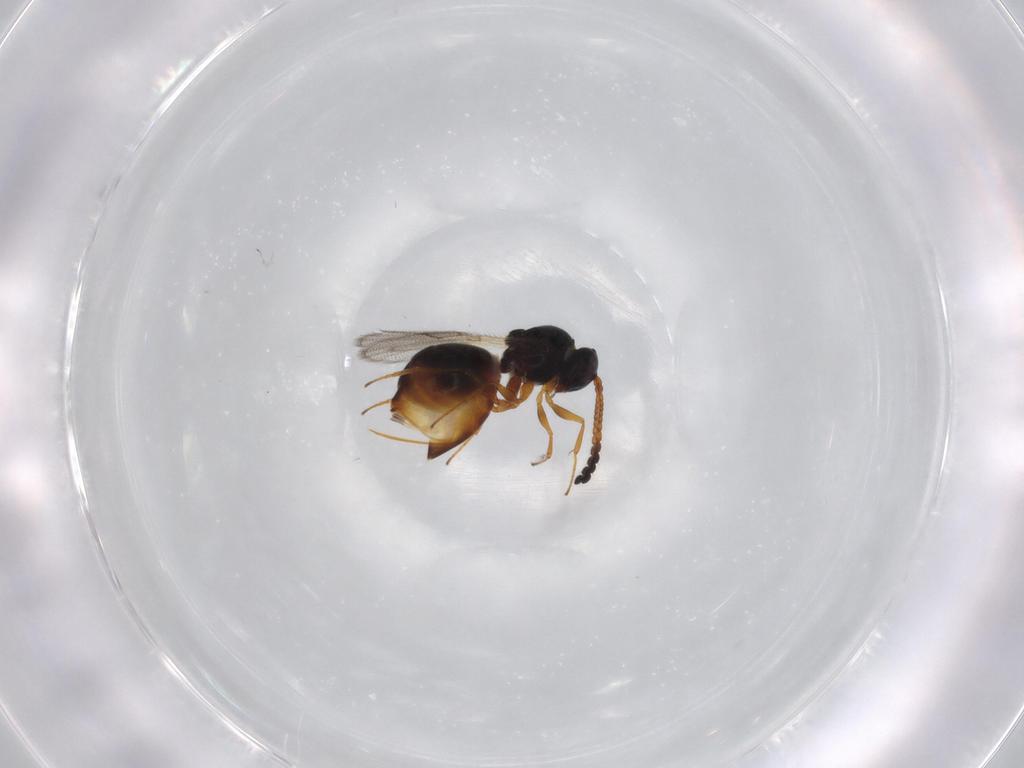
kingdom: Animalia
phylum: Arthropoda
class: Insecta
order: Hymenoptera
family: Figitidae
